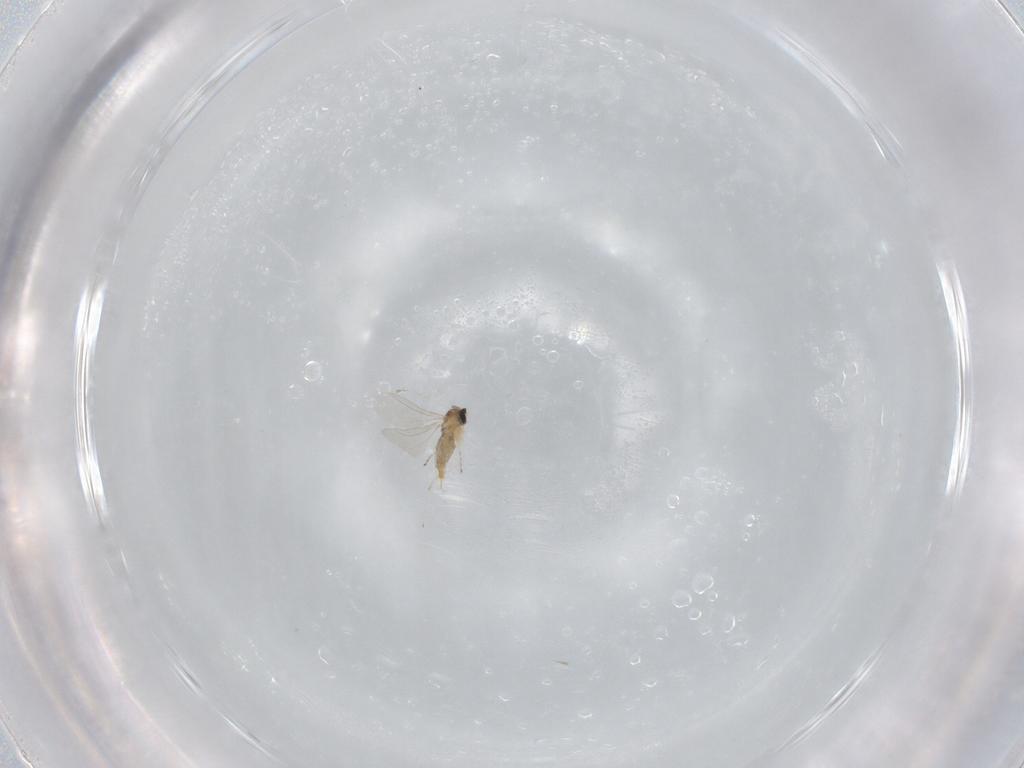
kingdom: Animalia
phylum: Arthropoda
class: Insecta
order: Diptera
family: Cecidomyiidae
